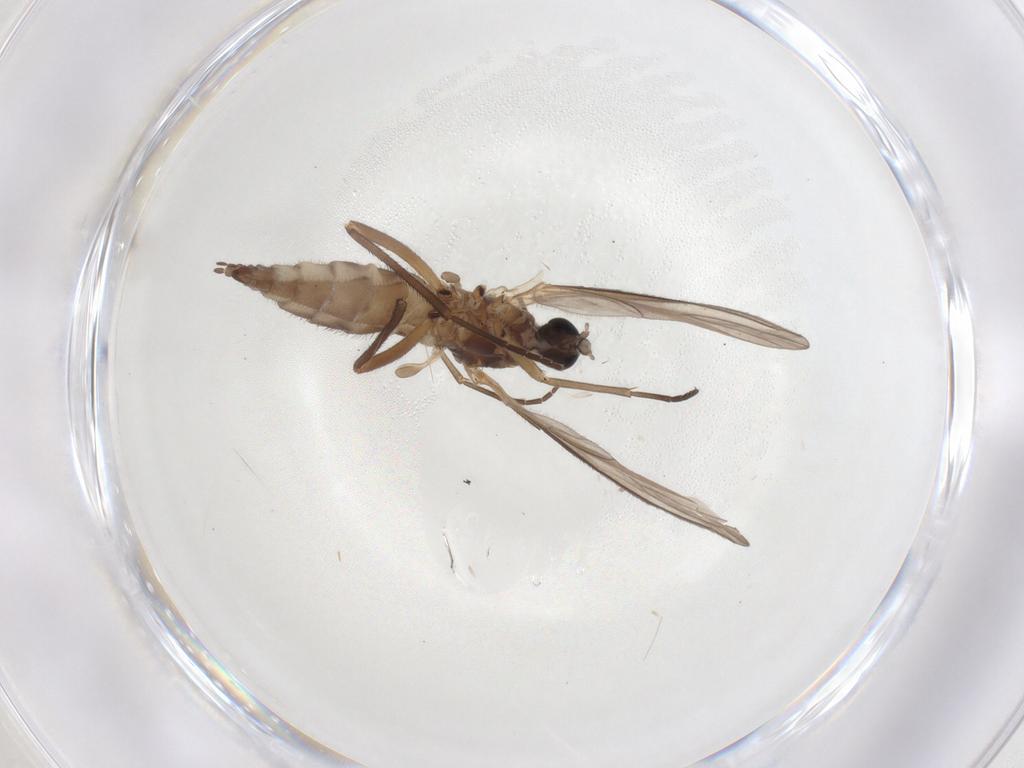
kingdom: Animalia
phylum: Arthropoda
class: Insecta
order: Diptera
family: Sciaridae
